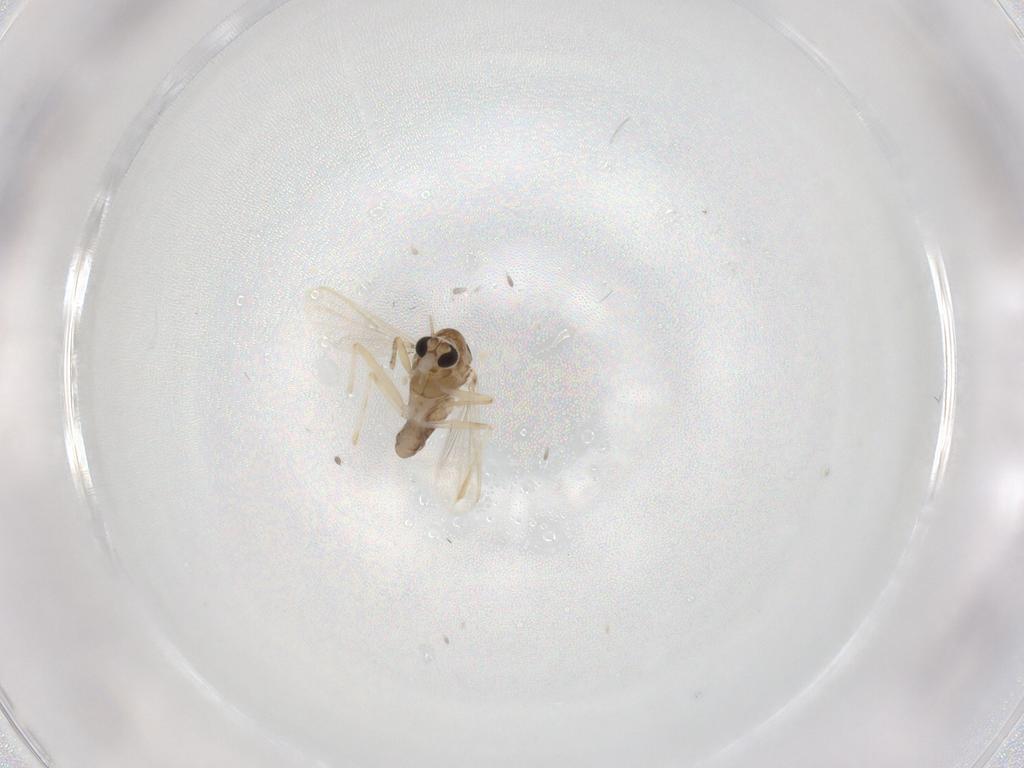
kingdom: Animalia
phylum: Arthropoda
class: Insecta
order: Diptera
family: Chironomidae
